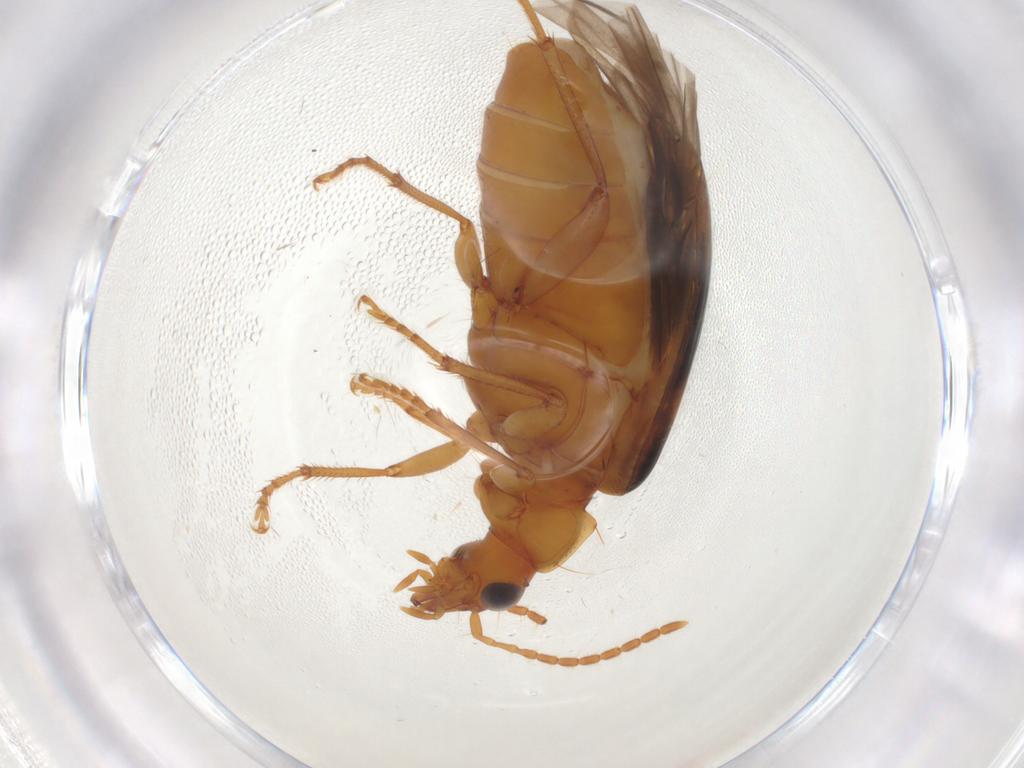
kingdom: Animalia
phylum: Arthropoda
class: Insecta
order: Coleoptera
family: Carabidae
